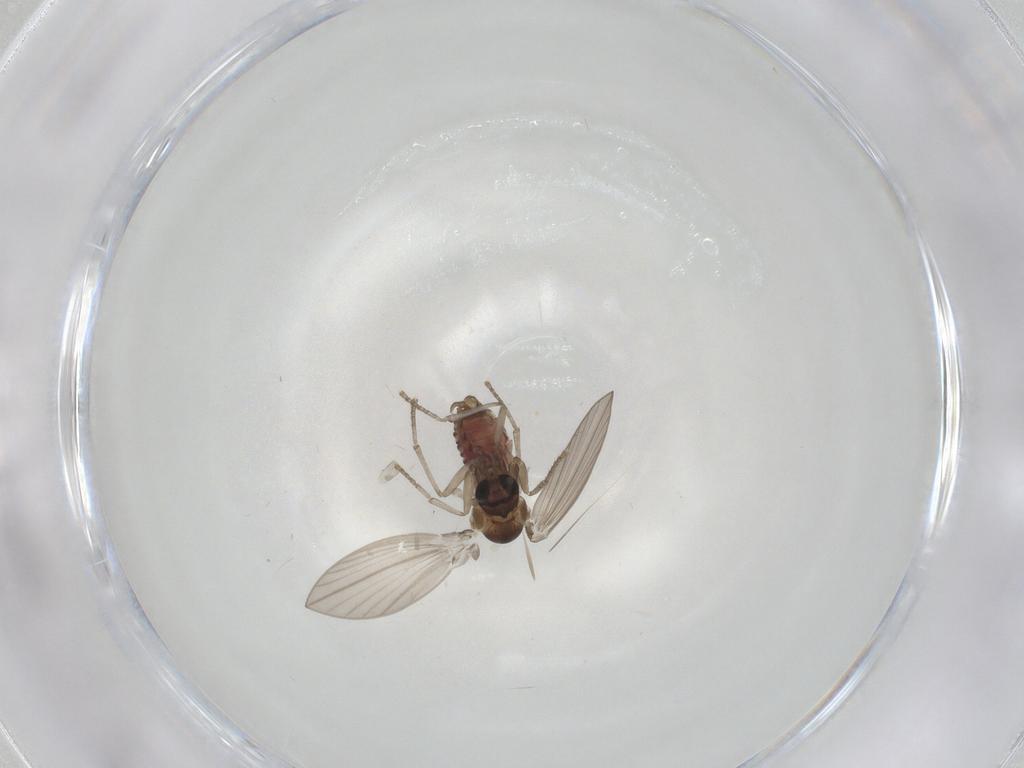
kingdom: Animalia
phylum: Arthropoda
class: Insecta
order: Diptera
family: Psychodidae
